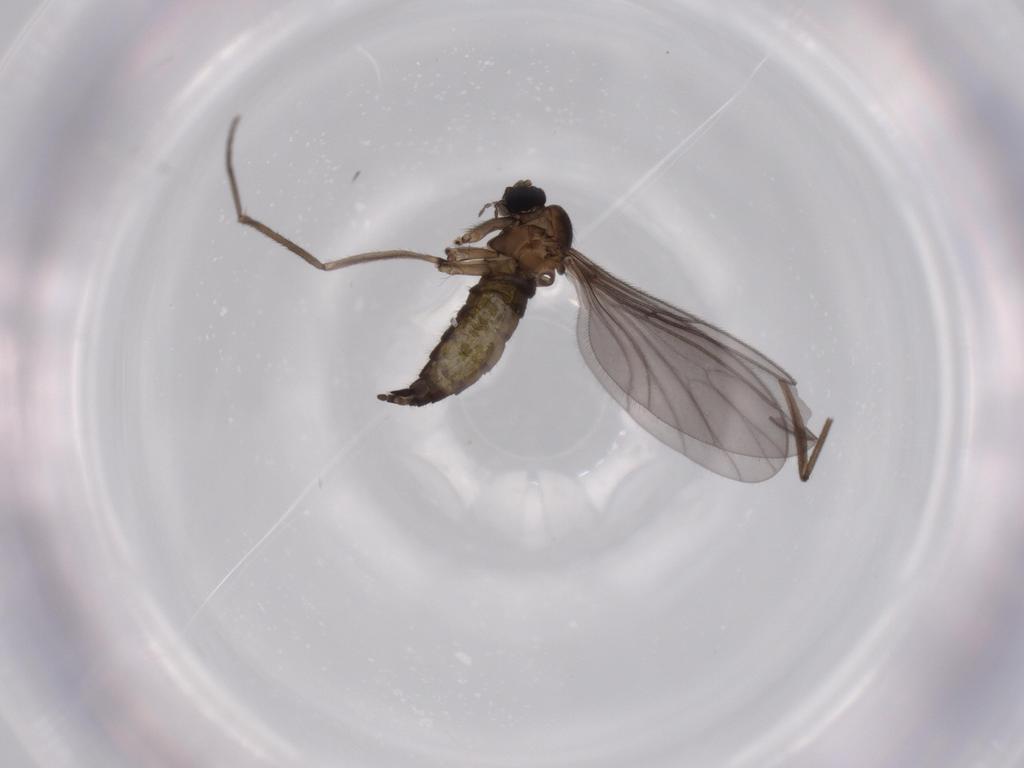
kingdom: Animalia
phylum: Arthropoda
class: Insecta
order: Diptera
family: Sciaridae
